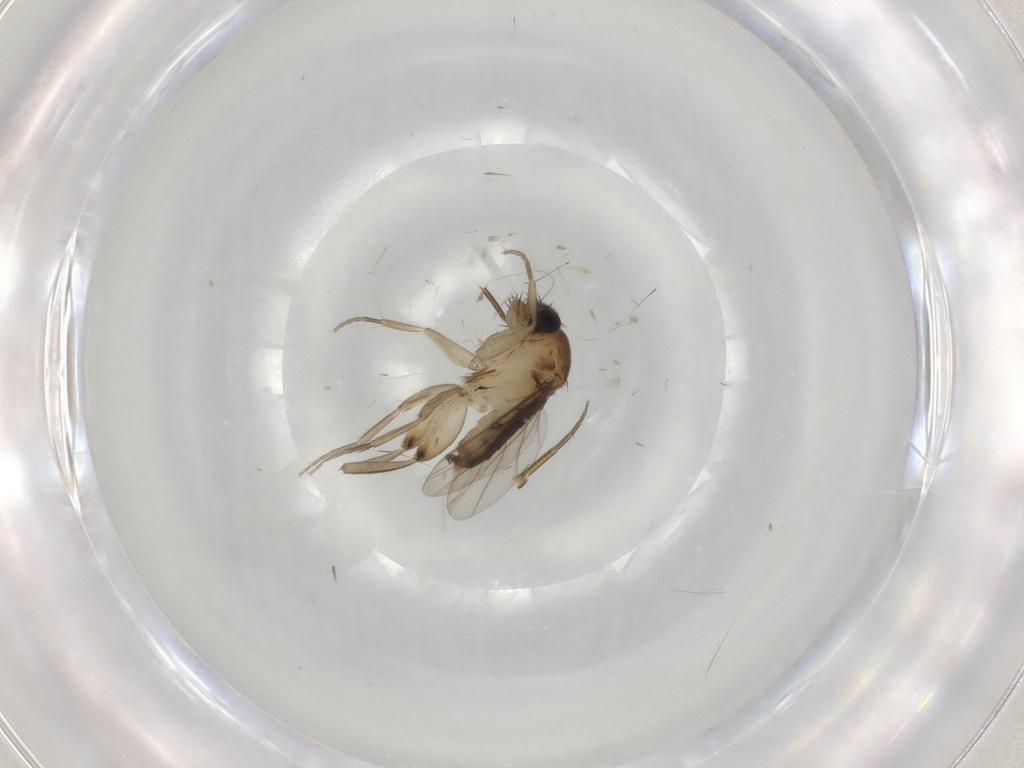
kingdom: Animalia
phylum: Arthropoda
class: Insecta
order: Diptera
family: Phoridae
